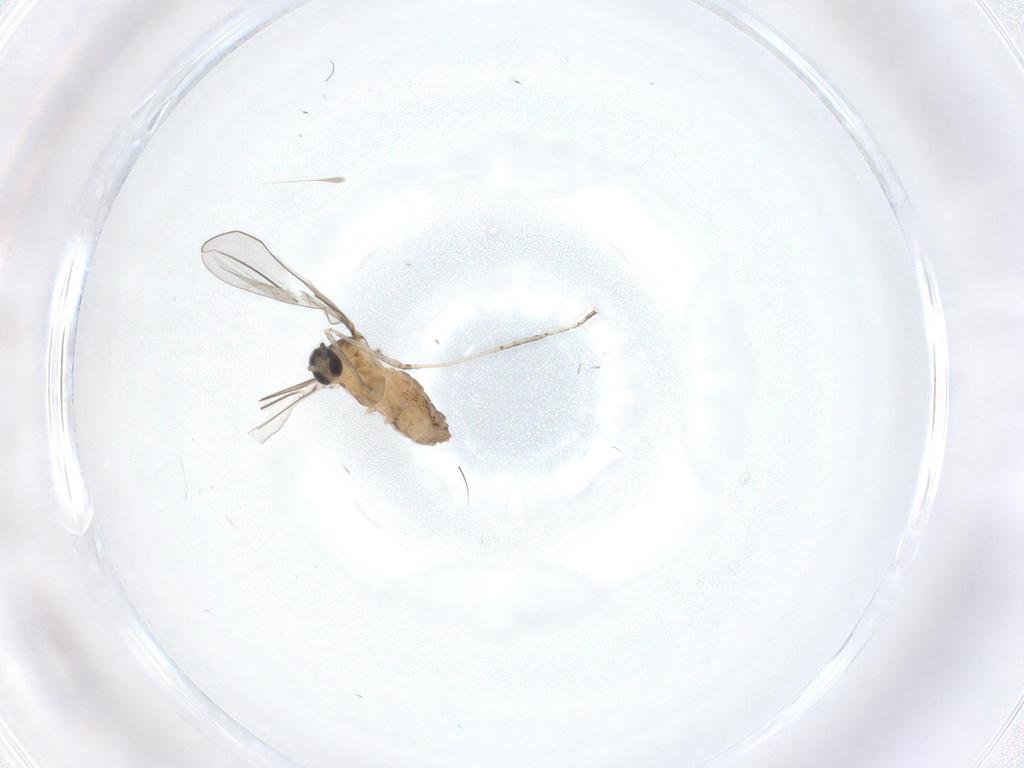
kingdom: Animalia
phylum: Arthropoda
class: Insecta
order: Diptera
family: Cecidomyiidae
